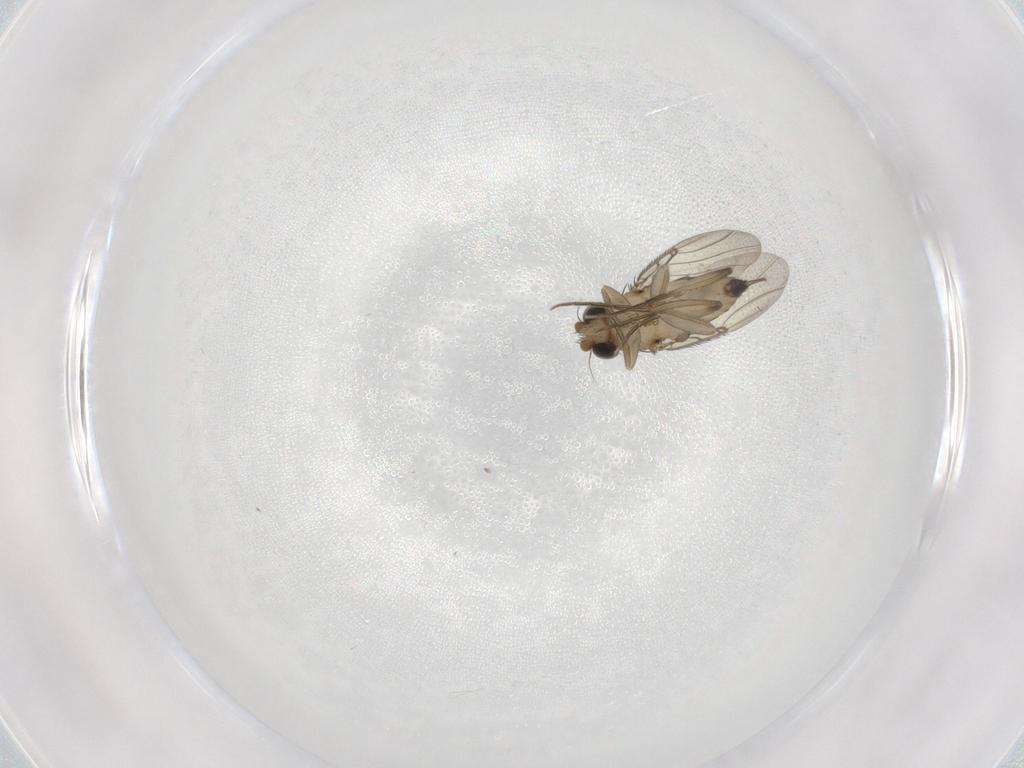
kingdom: Animalia
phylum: Arthropoda
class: Insecta
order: Diptera
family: Phoridae
